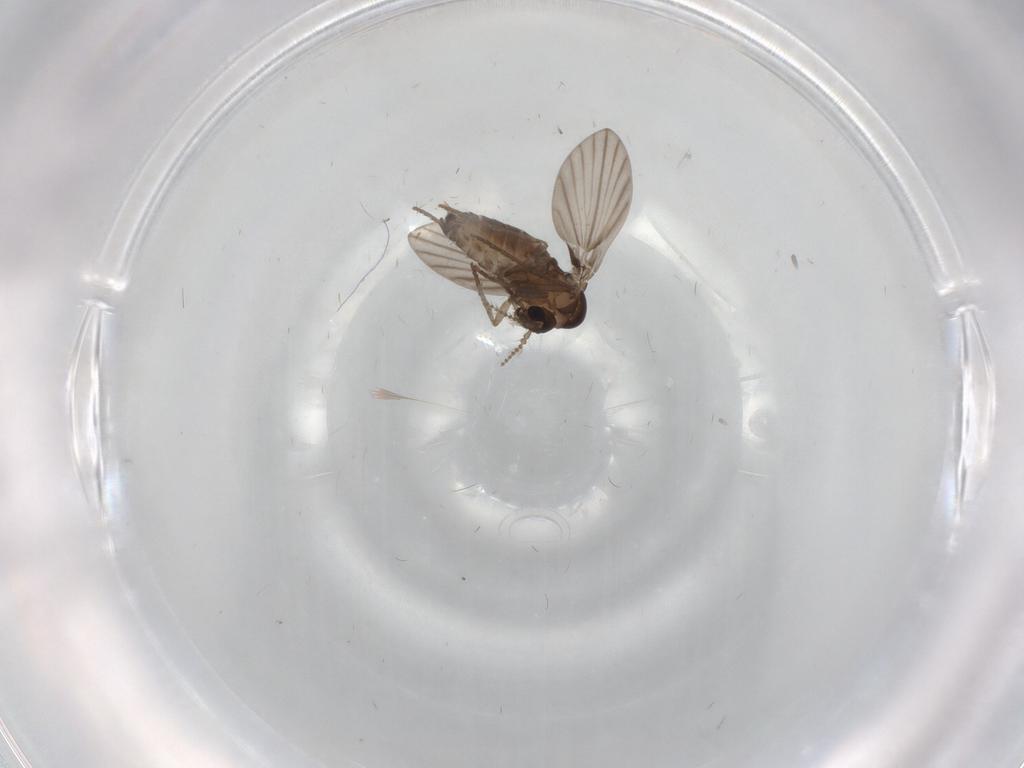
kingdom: Animalia
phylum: Arthropoda
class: Insecta
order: Diptera
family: Psychodidae
